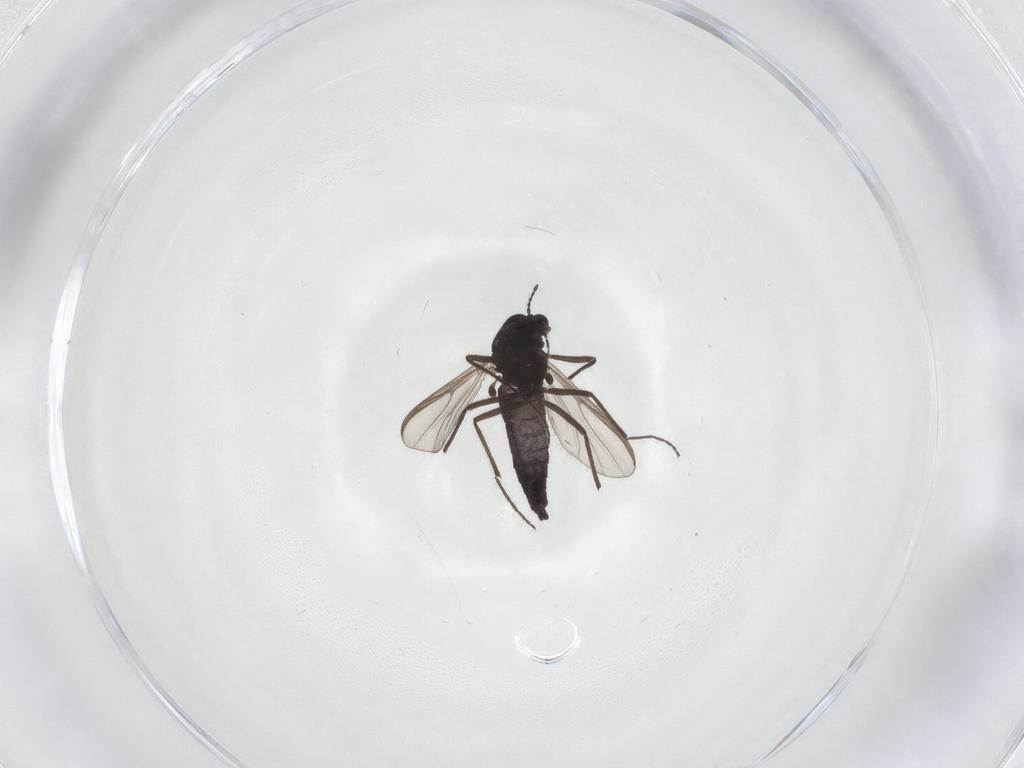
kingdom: Animalia
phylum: Arthropoda
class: Insecta
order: Diptera
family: Chironomidae
